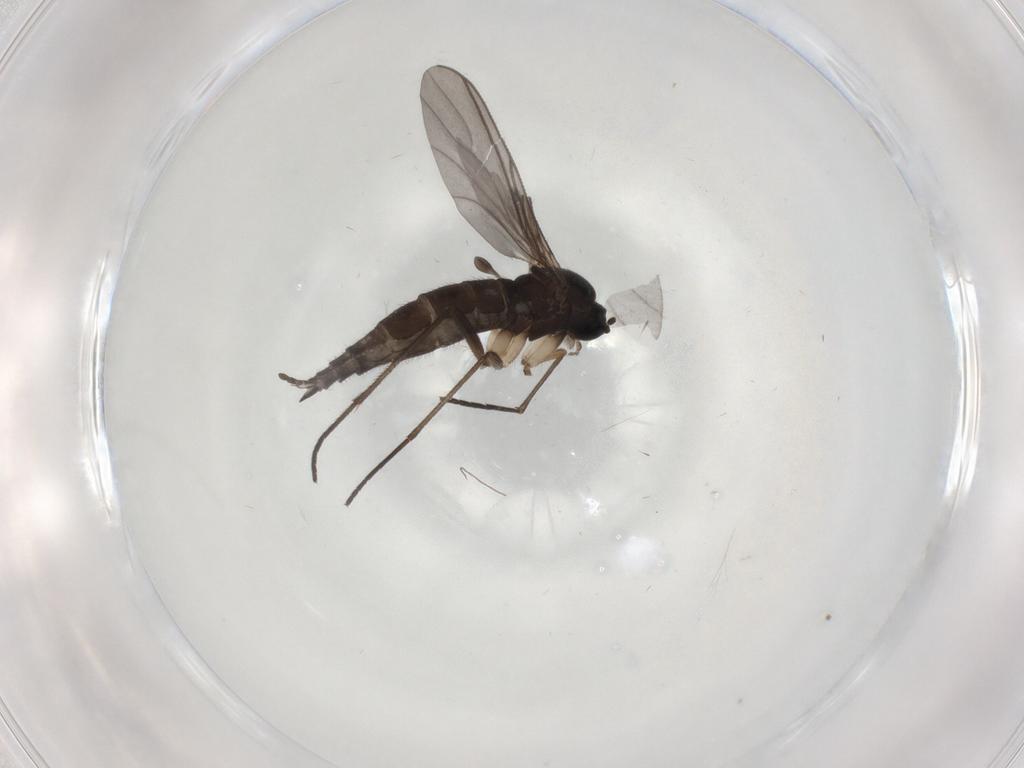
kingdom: Animalia
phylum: Arthropoda
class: Insecta
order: Diptera
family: Sciaridae
